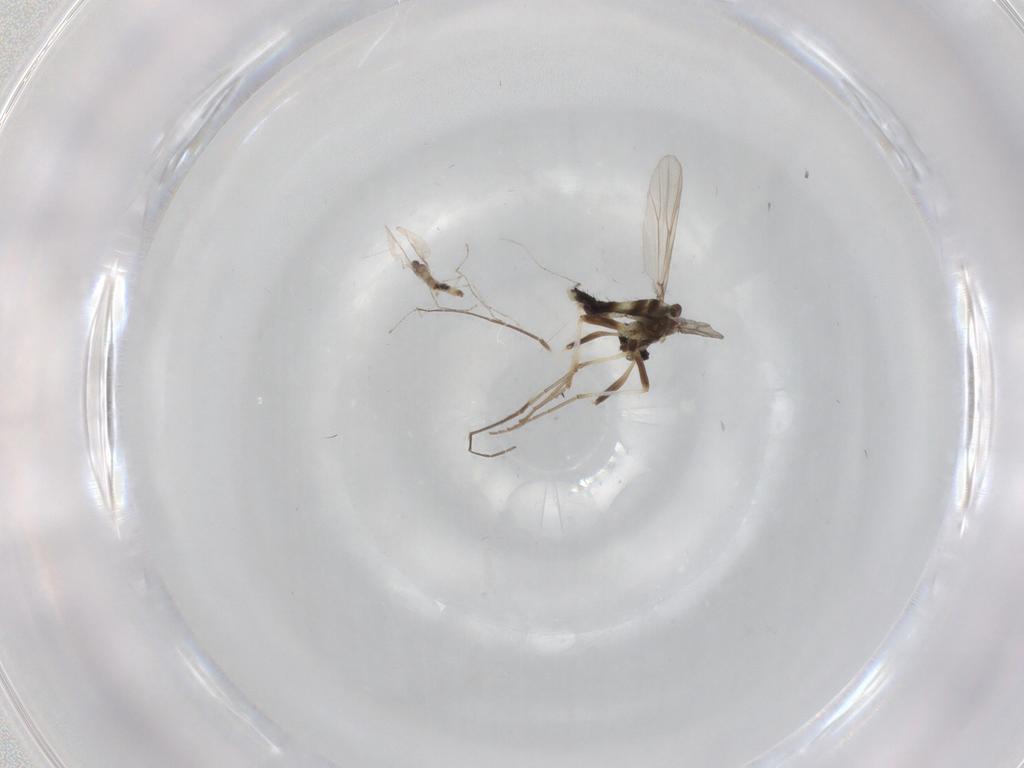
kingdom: Animalia
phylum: Arthropoda
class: Insecta
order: Diptera
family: Chironomidae
